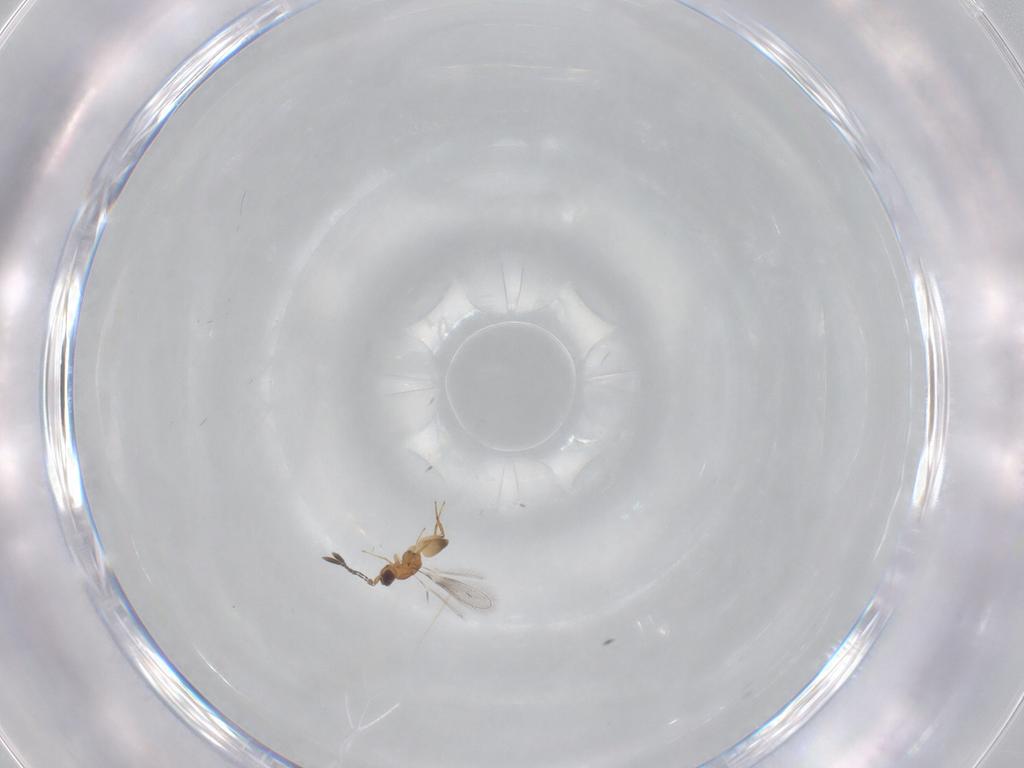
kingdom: Animalia
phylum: Arthropoda
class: Insecta
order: Hymenoptera
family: Mymaridae
